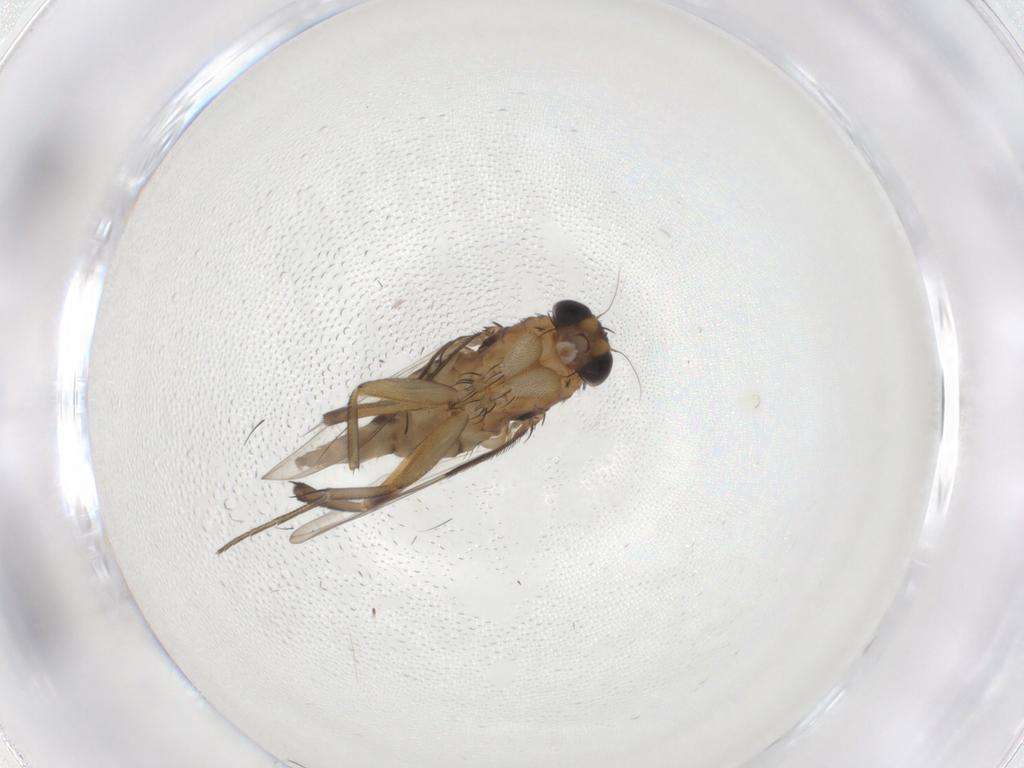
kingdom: Animalia
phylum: Arthropoda
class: Insecta
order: Diptera
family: Phoridae
